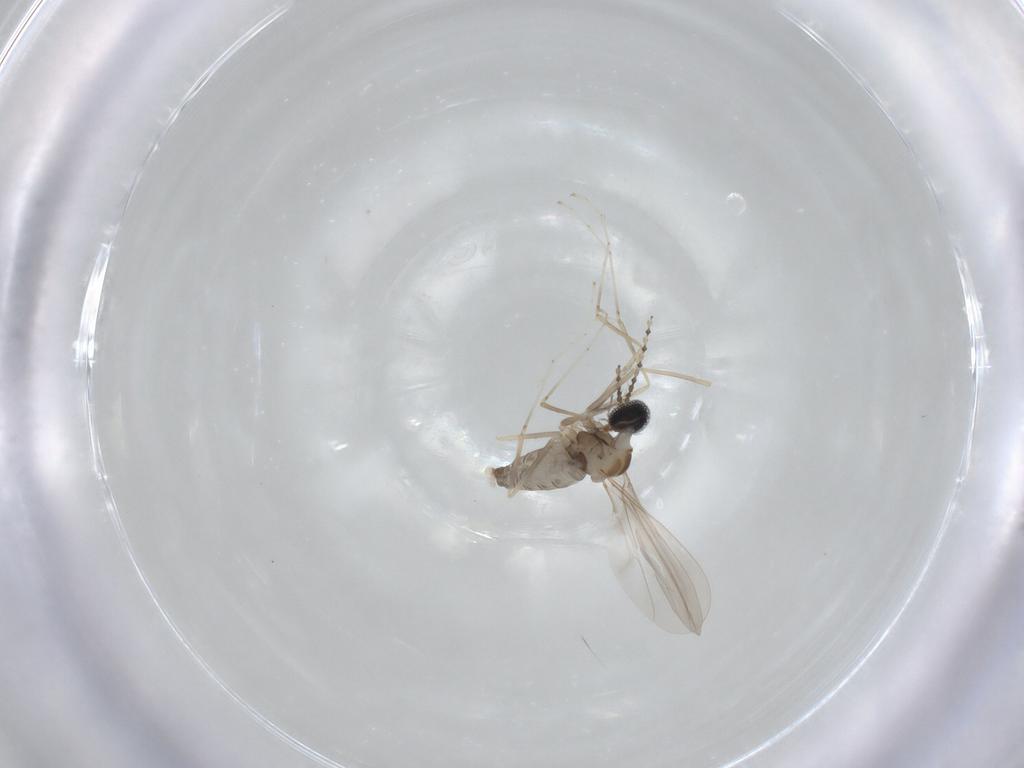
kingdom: Animalia
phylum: Arthropoda
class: Insecta
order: Diptera
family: Cecidomyiidae
